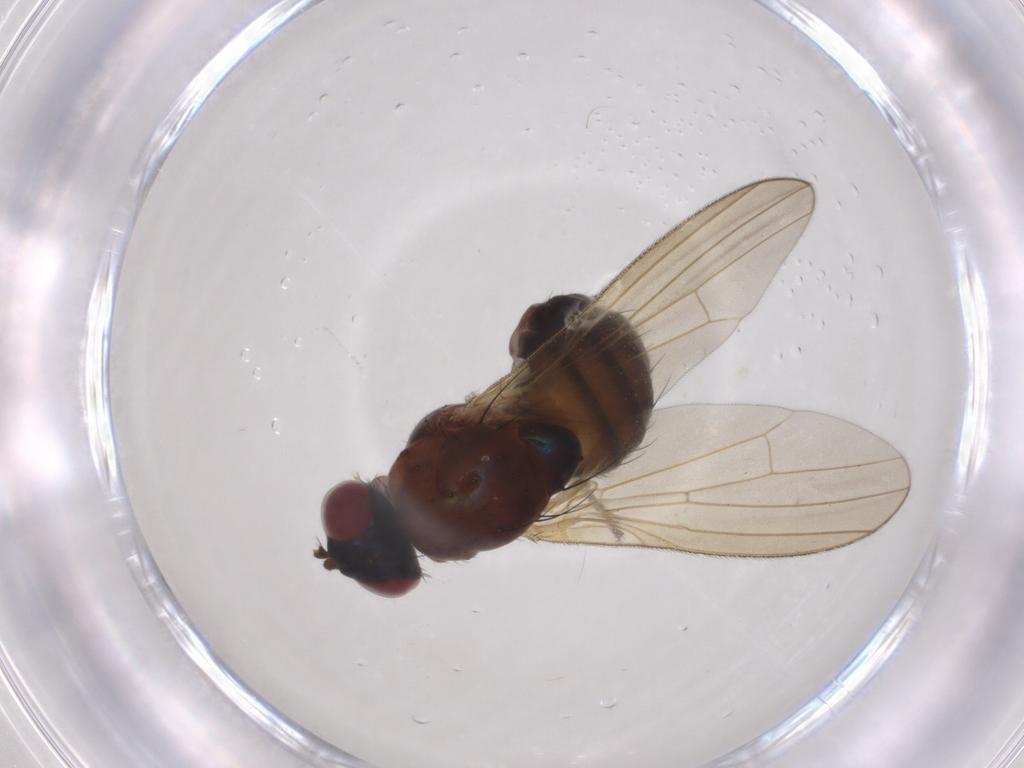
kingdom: Animalia
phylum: Arthropoda
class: Insecta
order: Diptera
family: Lauxaniidae
